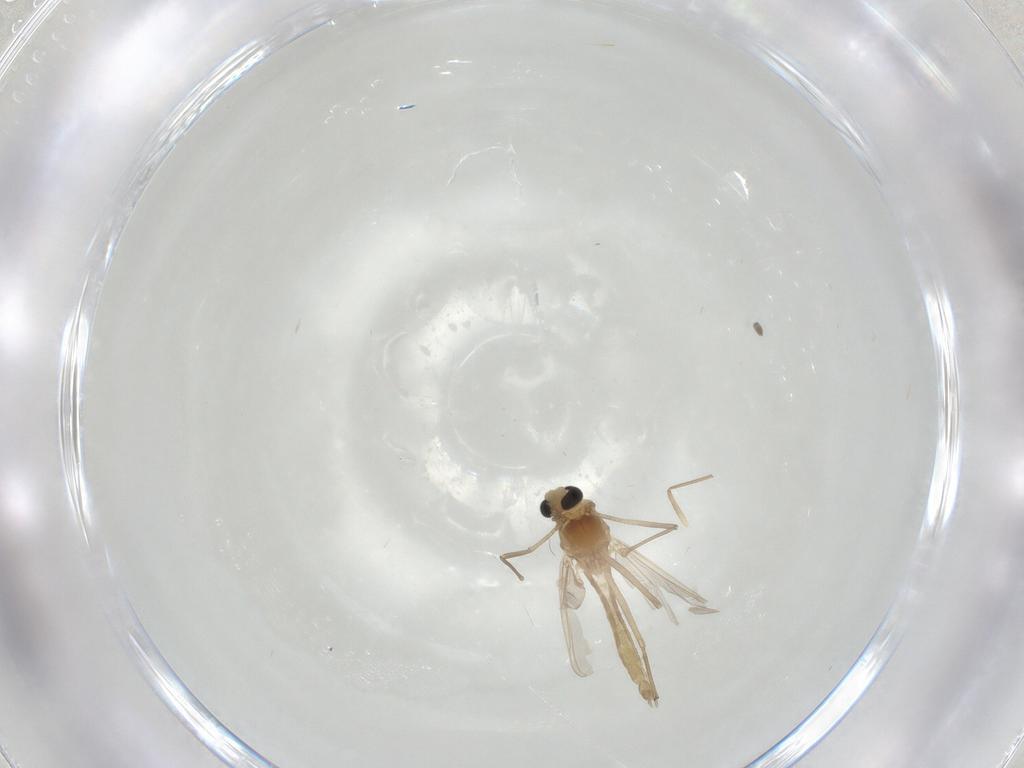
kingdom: Animalia
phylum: Arthropoda
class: Insecta
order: Diptera
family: Chironomidae
